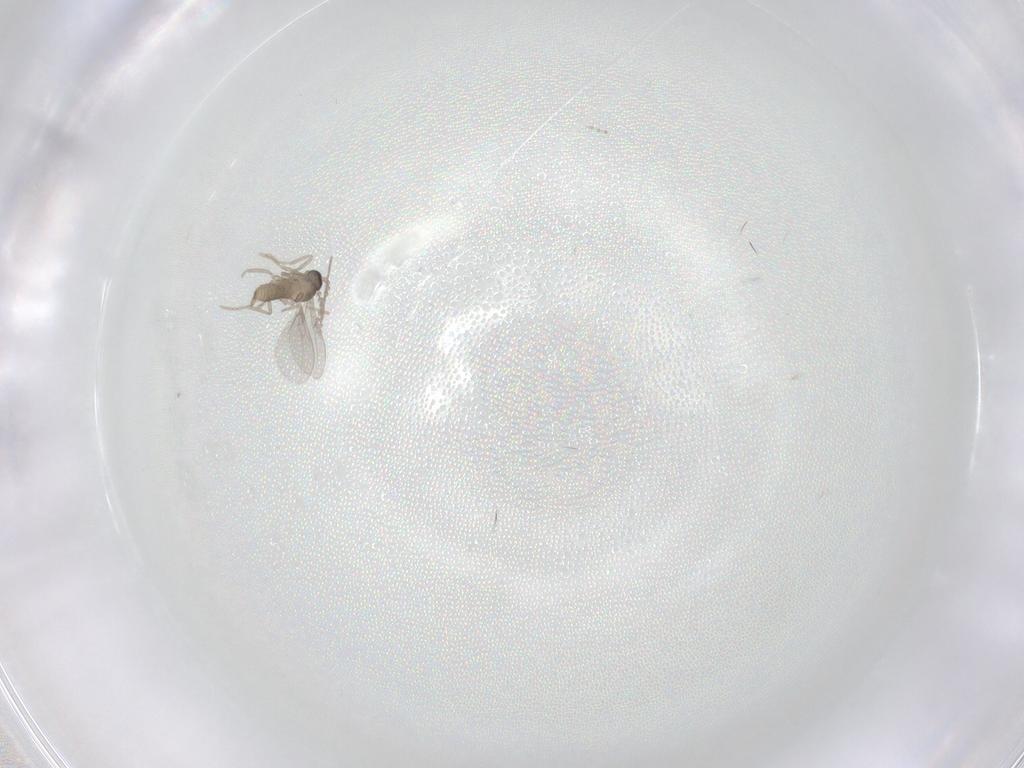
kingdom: Animalia
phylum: Arthropoda
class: Insecta
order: Diptera
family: Chironomidae
